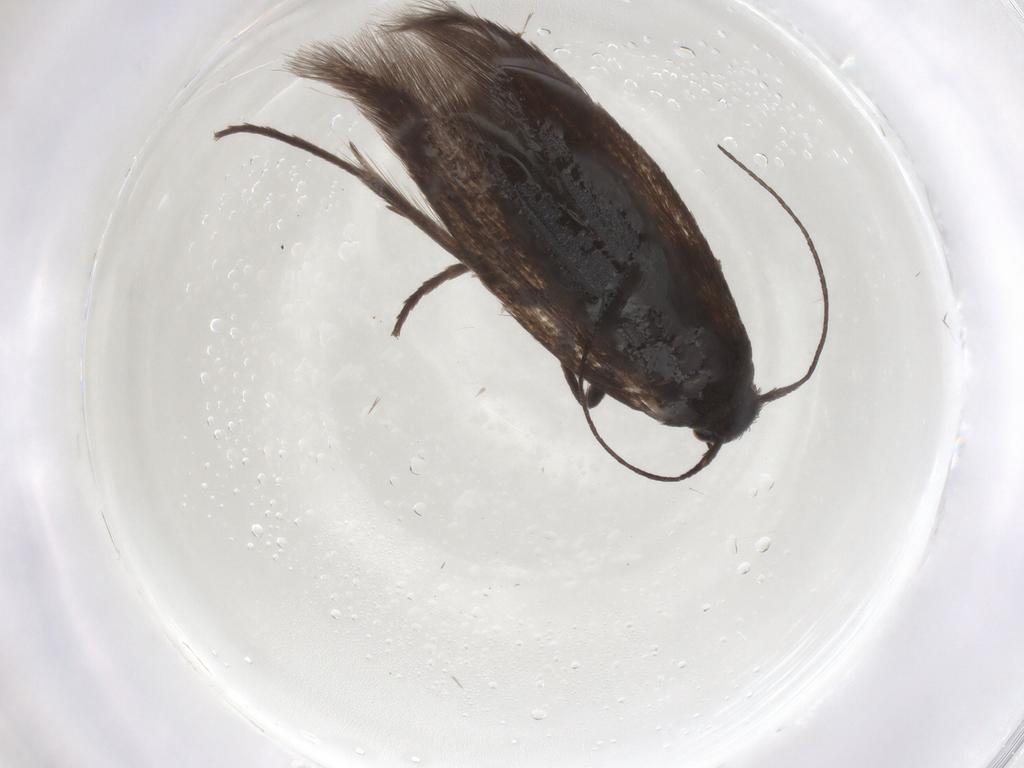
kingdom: Animalia
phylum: Arthropoda
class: Insecta
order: Lepidoptera
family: Scythrididae
